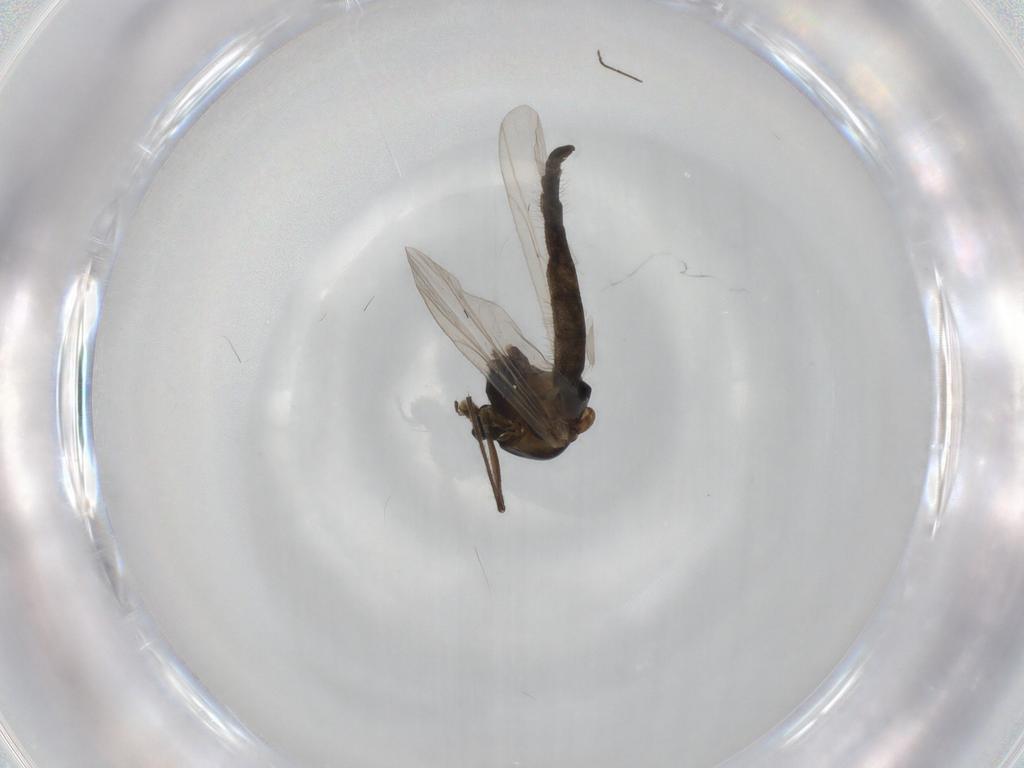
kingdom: Animalia
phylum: Arthropoda
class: Insecta
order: Diptera
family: Chironomidae
